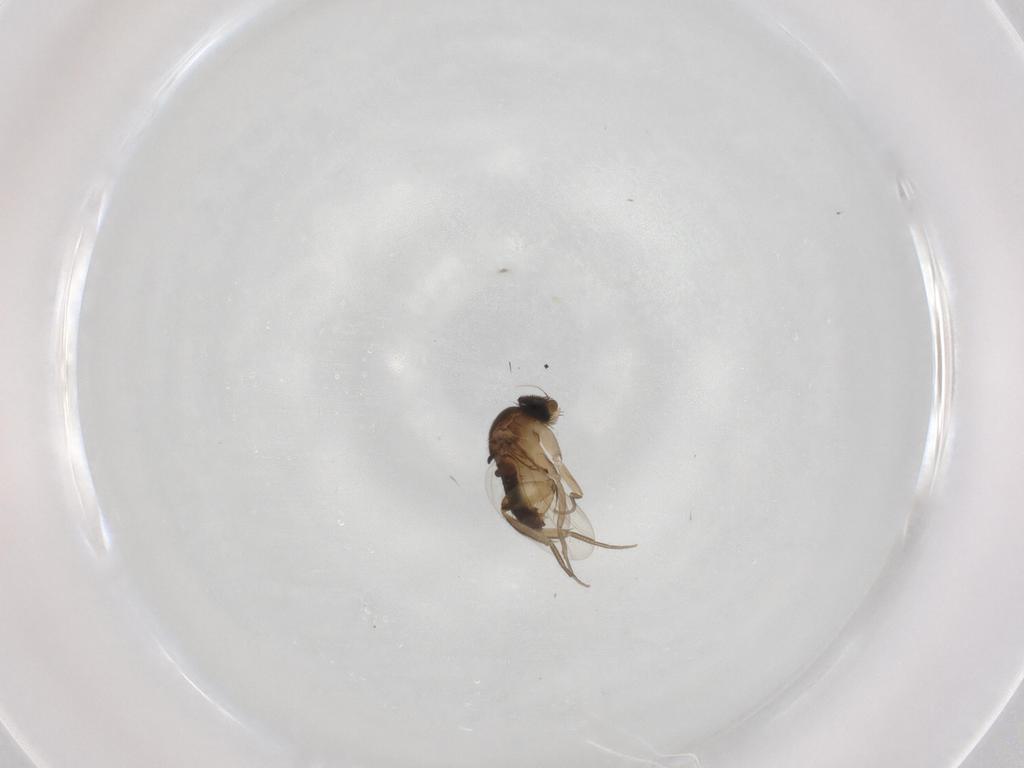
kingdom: Animalia
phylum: Arthropoda
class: Insecta
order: Diptera
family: Phoridae
